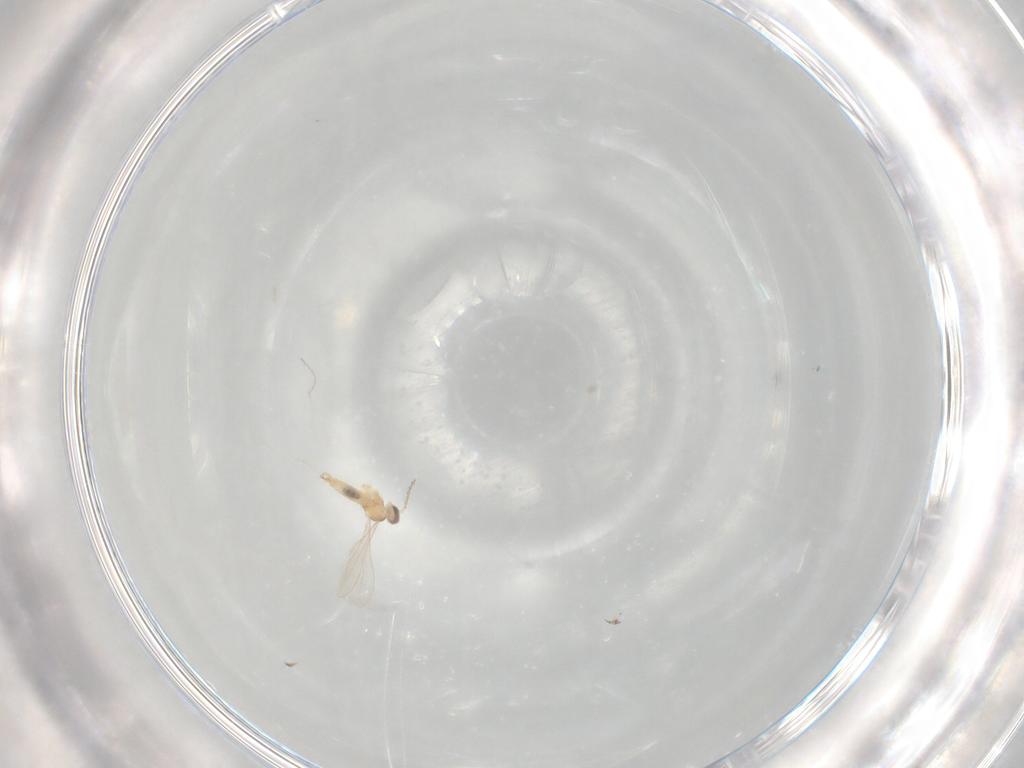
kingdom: Animalia
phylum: Arthropoda
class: Insecta
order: Diptera
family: Cecidomyiidae
